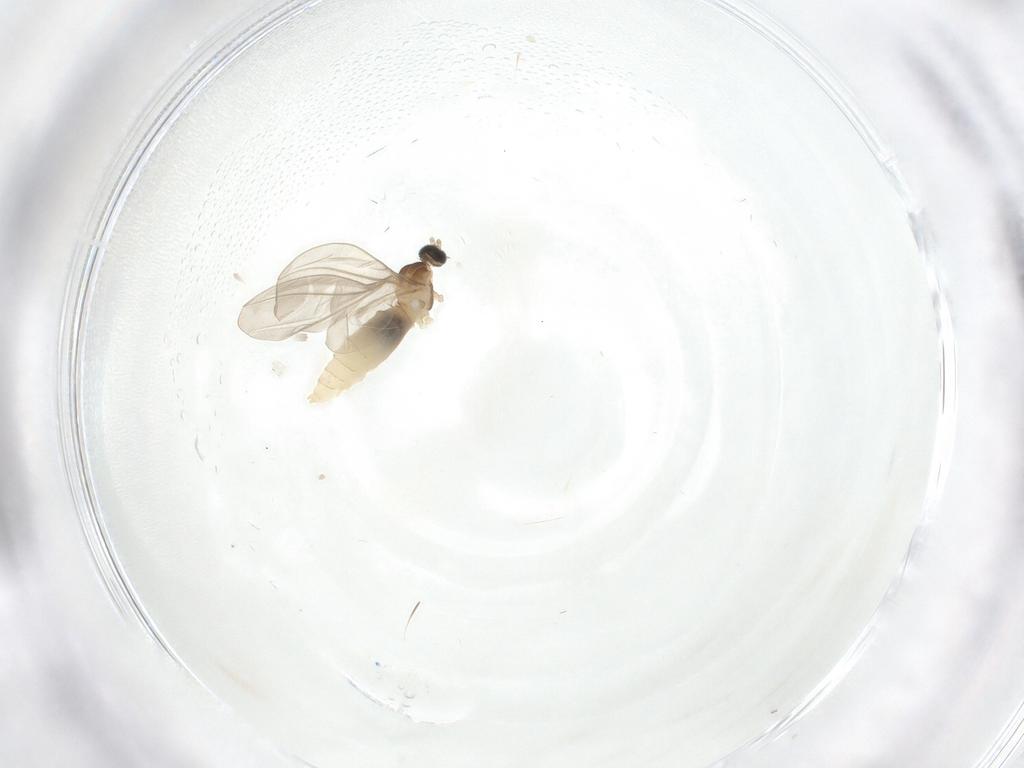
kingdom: Animalia
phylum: Arthropoda
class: Insecta
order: Diptera
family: Cecidomyiidae
